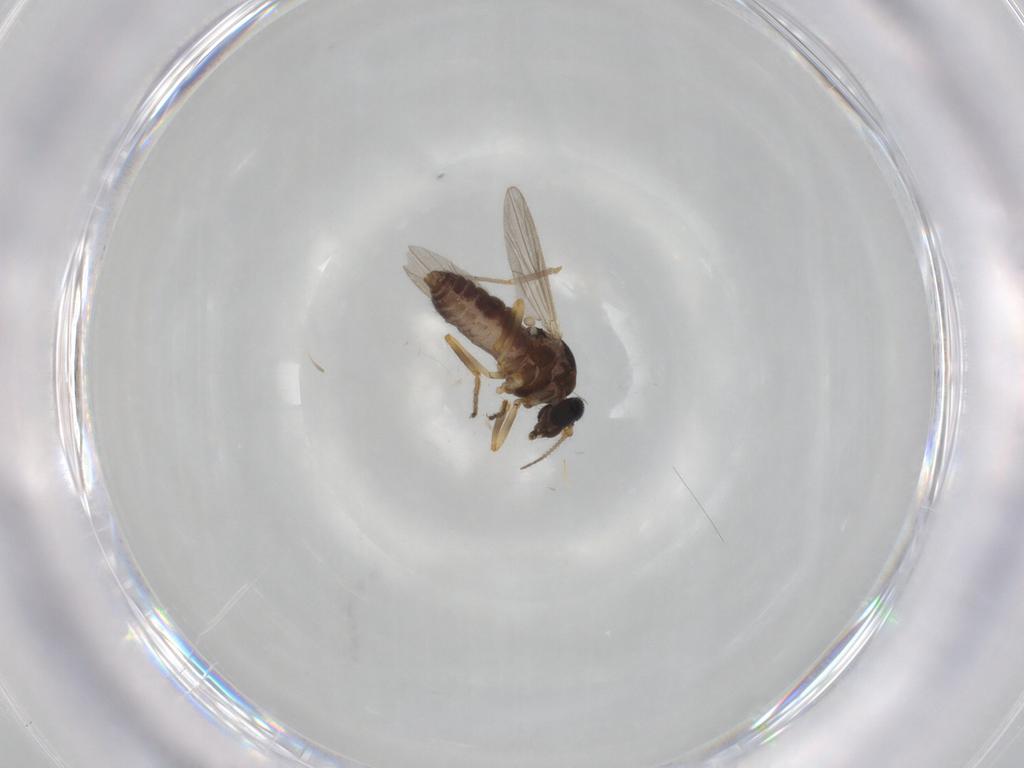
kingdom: Animalia
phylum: Arthropoda
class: Insecta
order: Diptera
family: Ceratopogonidae
